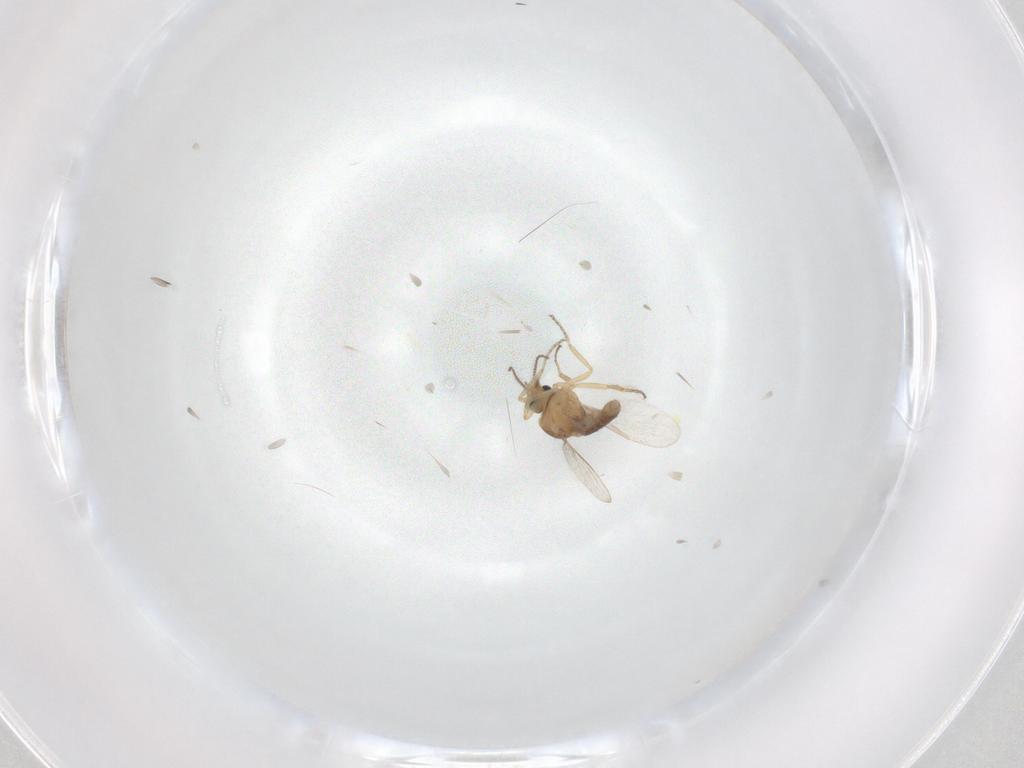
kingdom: Animalia
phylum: Arthropoda
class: Insecta
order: Diptera
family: Ceratopogonidae
